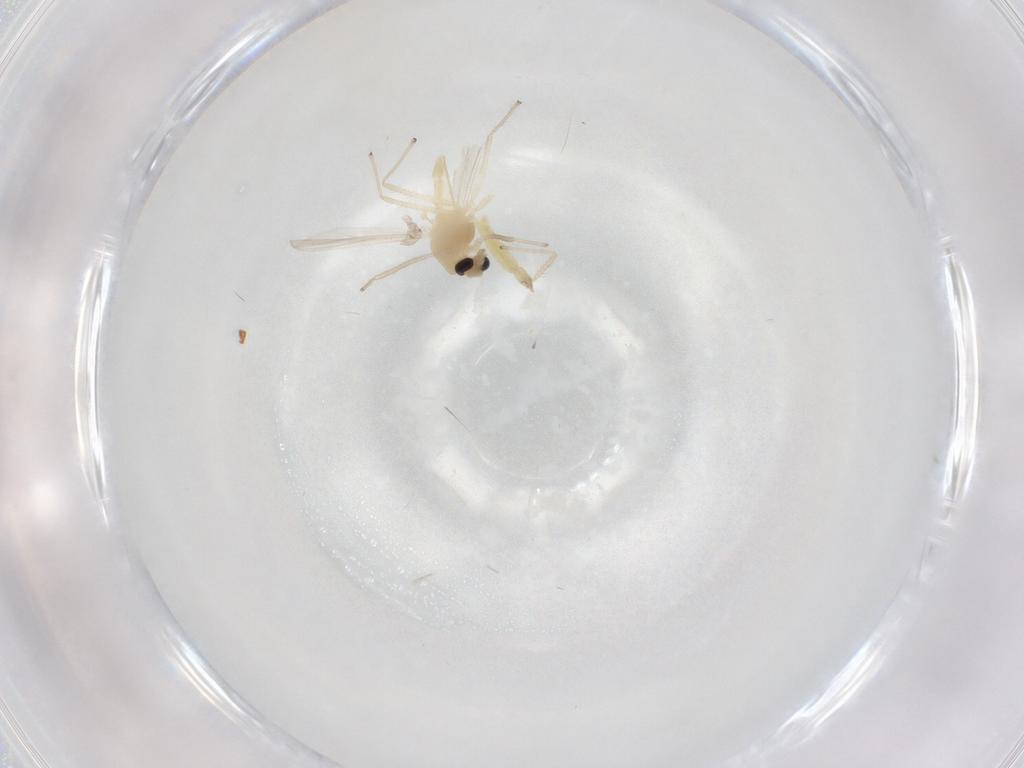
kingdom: Animalia
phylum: Arthropoda
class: Insecta
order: Diptera
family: Chironomidae
